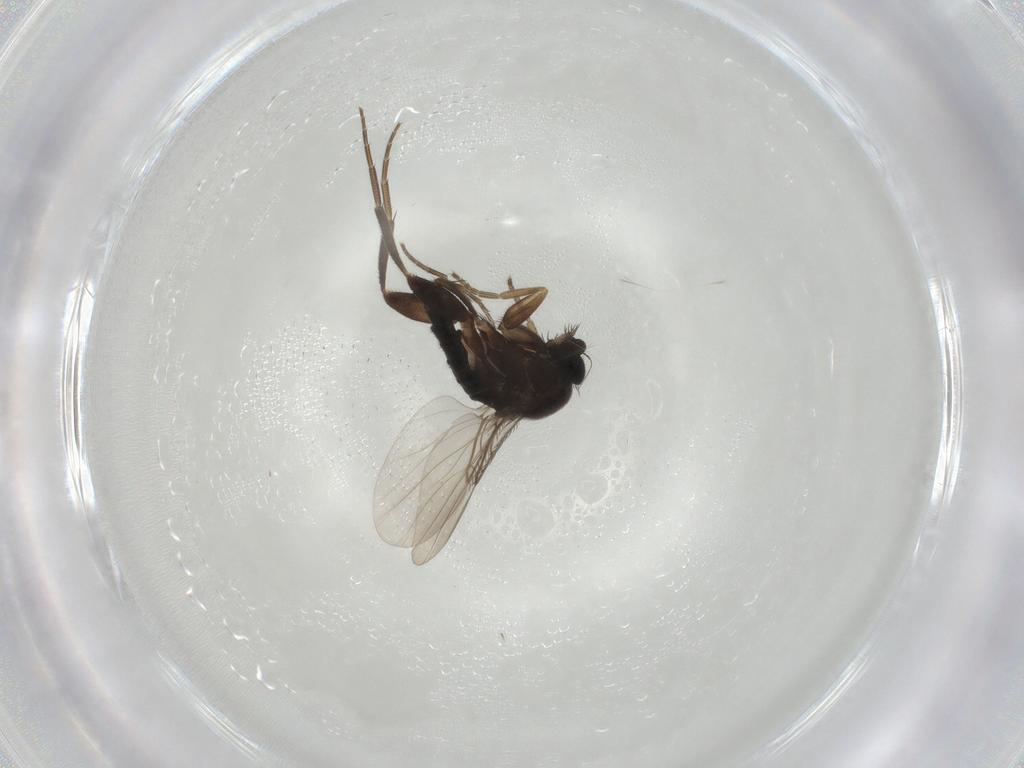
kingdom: Animalia
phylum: Arthropoda
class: Insecta
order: Diptera
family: Phoridae
